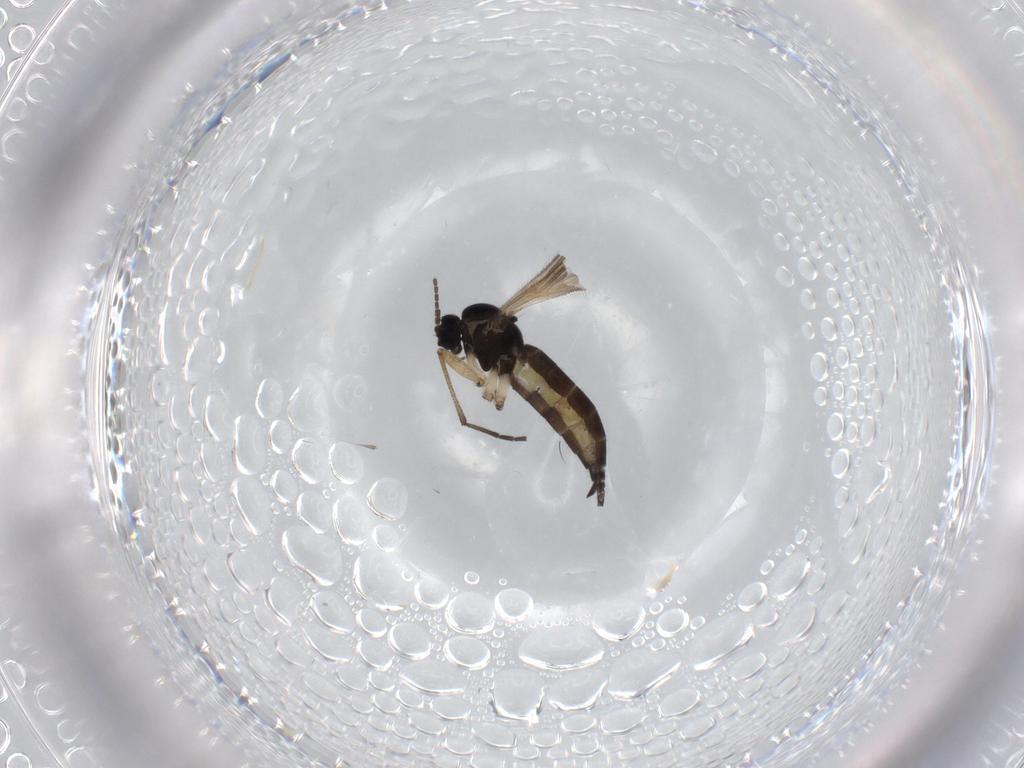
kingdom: Animalia
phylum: Arthropoda
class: Insecta
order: Diptera
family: Sciaridae
